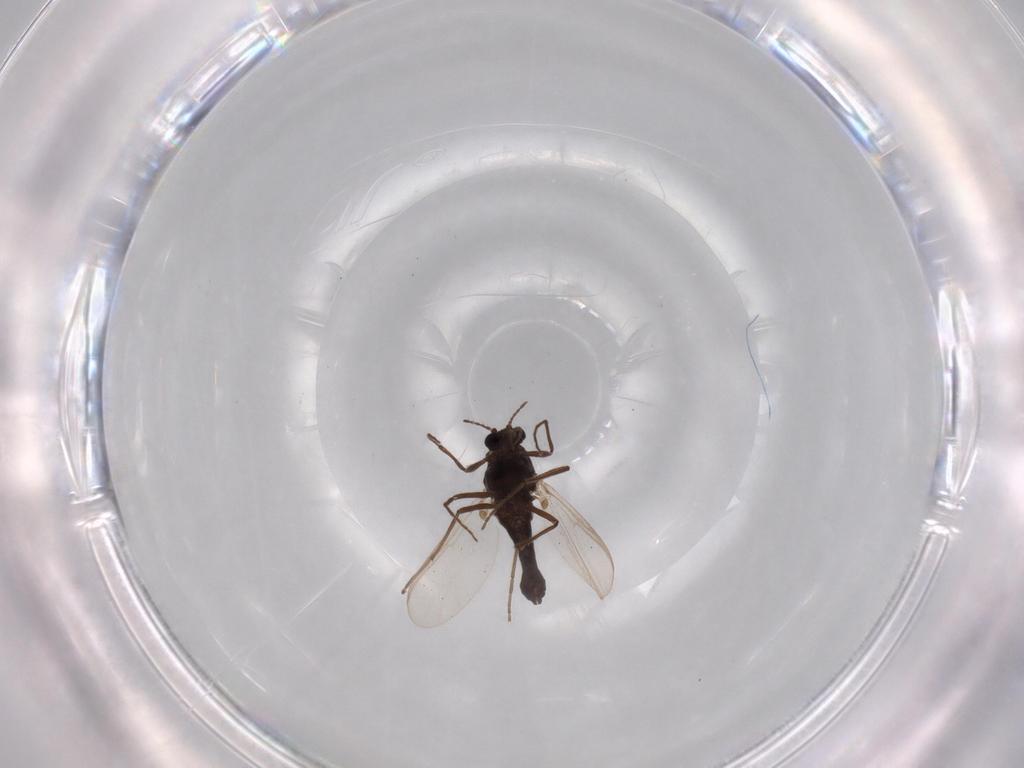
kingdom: Animalia
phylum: Arthropoda
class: Insecta
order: Diptera
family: Chironomidae
